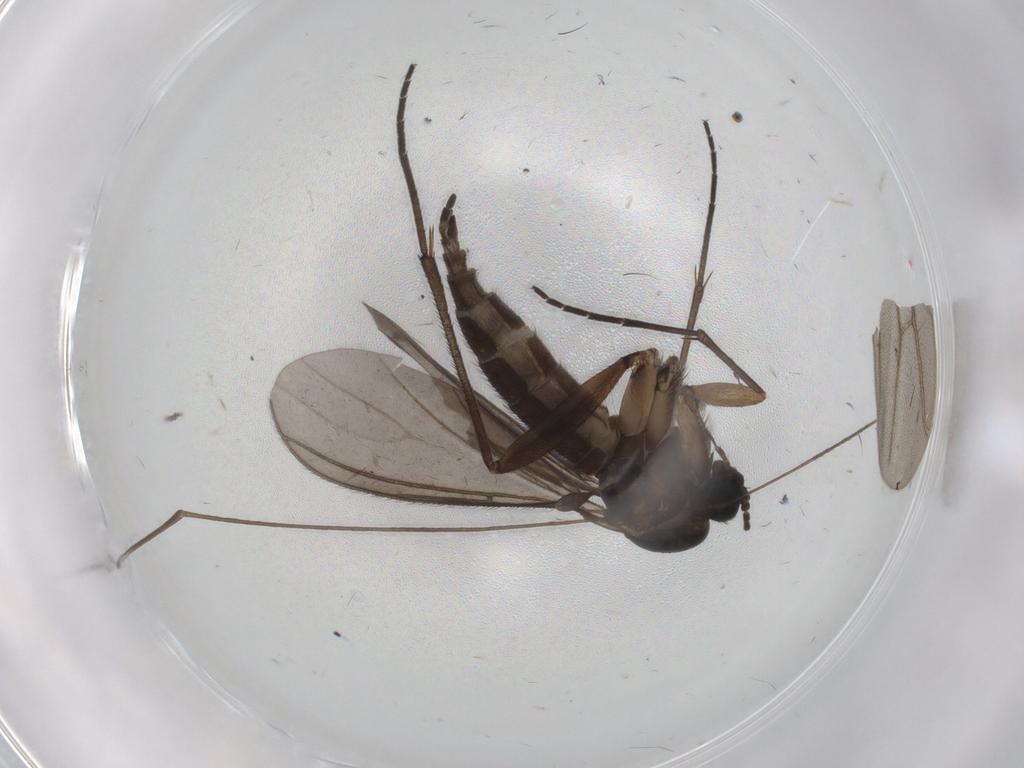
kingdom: Animalia
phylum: Arthropoda
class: Insecta
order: Diptera
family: Sciaridae
